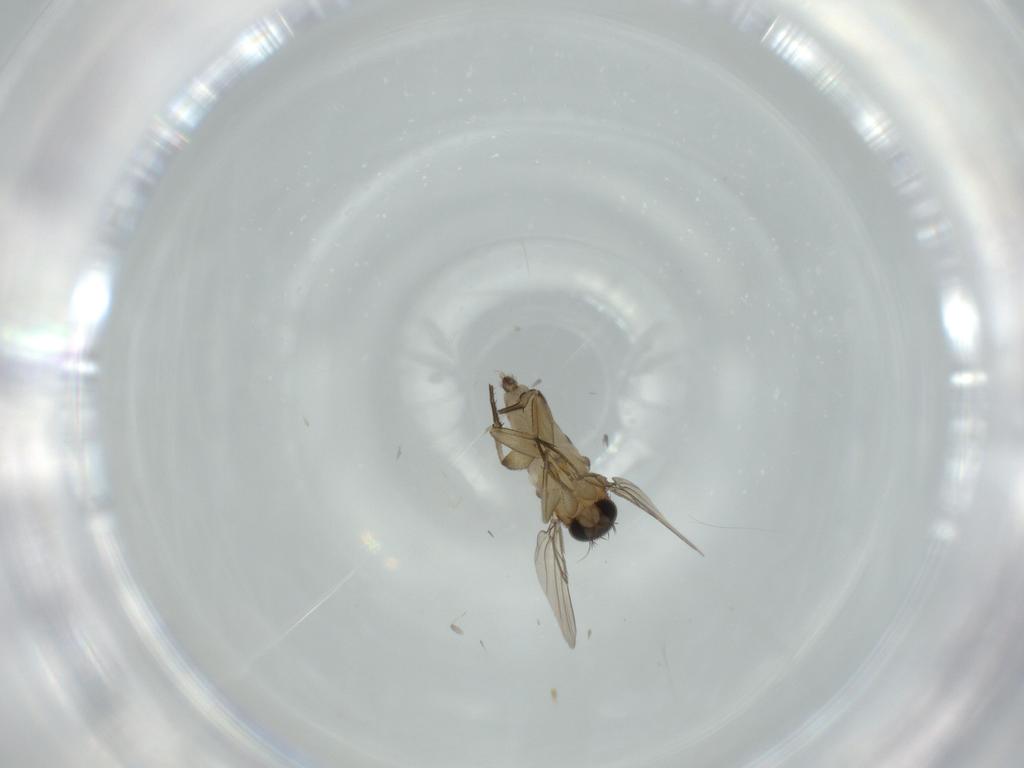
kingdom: Animalia
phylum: Arthropoda
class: Insecta
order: Diptera
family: Phoridae
